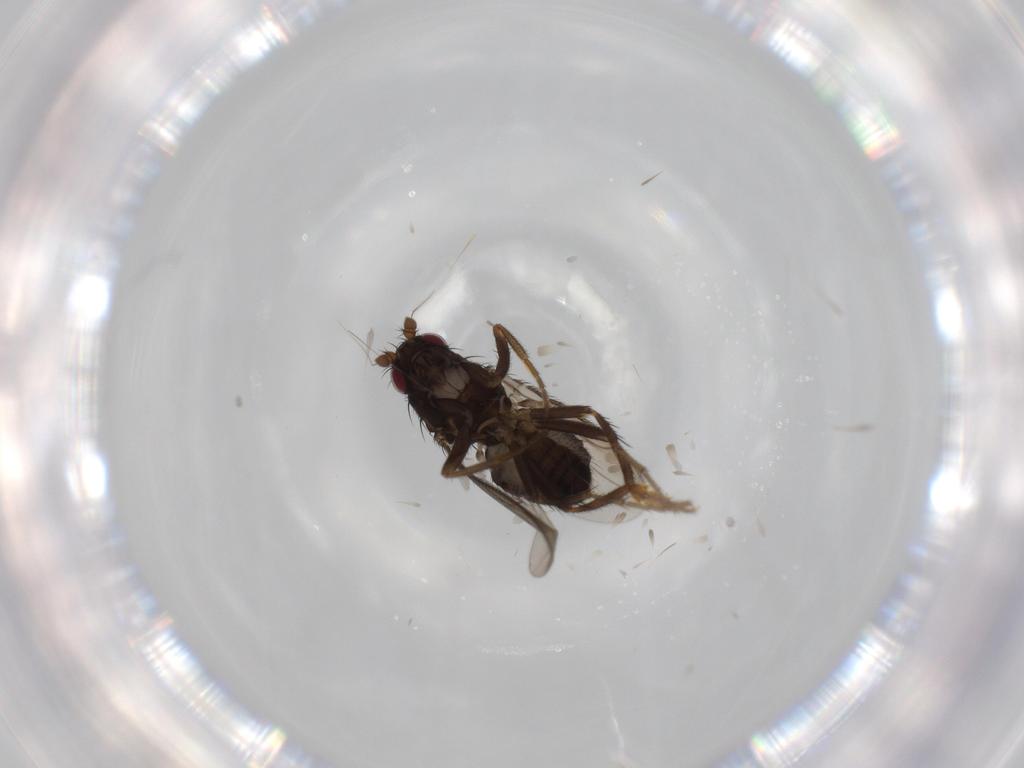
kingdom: Animalia
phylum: Arthropoda
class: Insecta
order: Diptera
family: Sphaeroceridae
